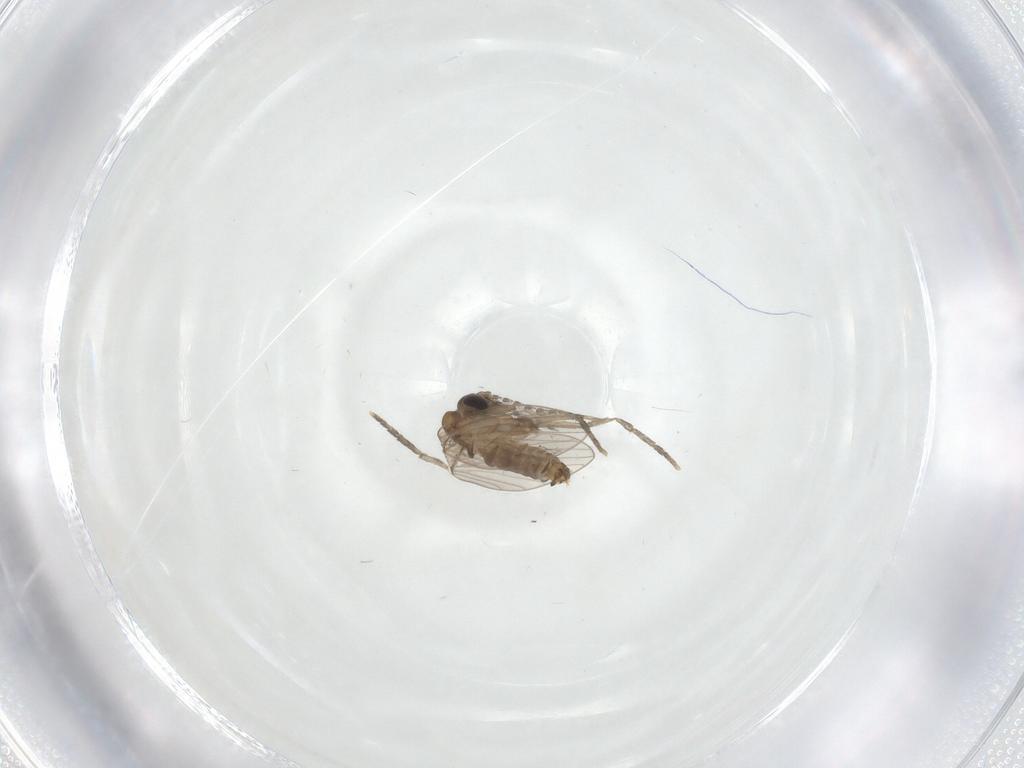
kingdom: Animalia
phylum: Arthropoda
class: Insecta
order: Diptera
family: Psychodidae
